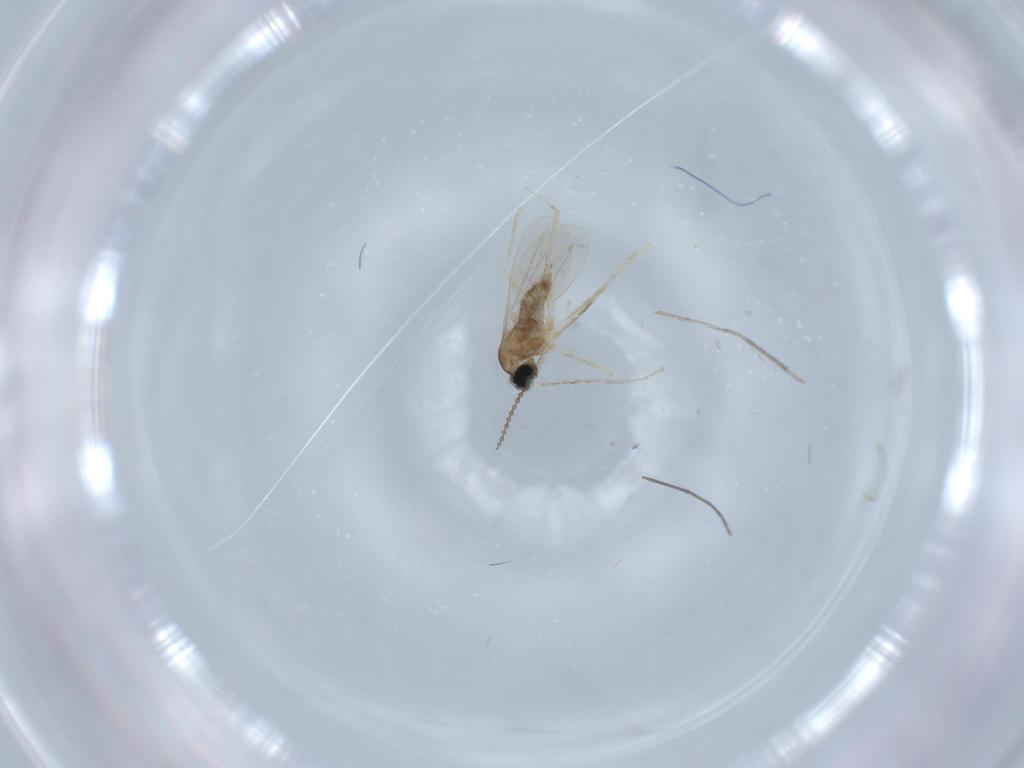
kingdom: Animalia
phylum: Arthropoda
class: Insecta
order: Diptera
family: Cecidomyiidae
